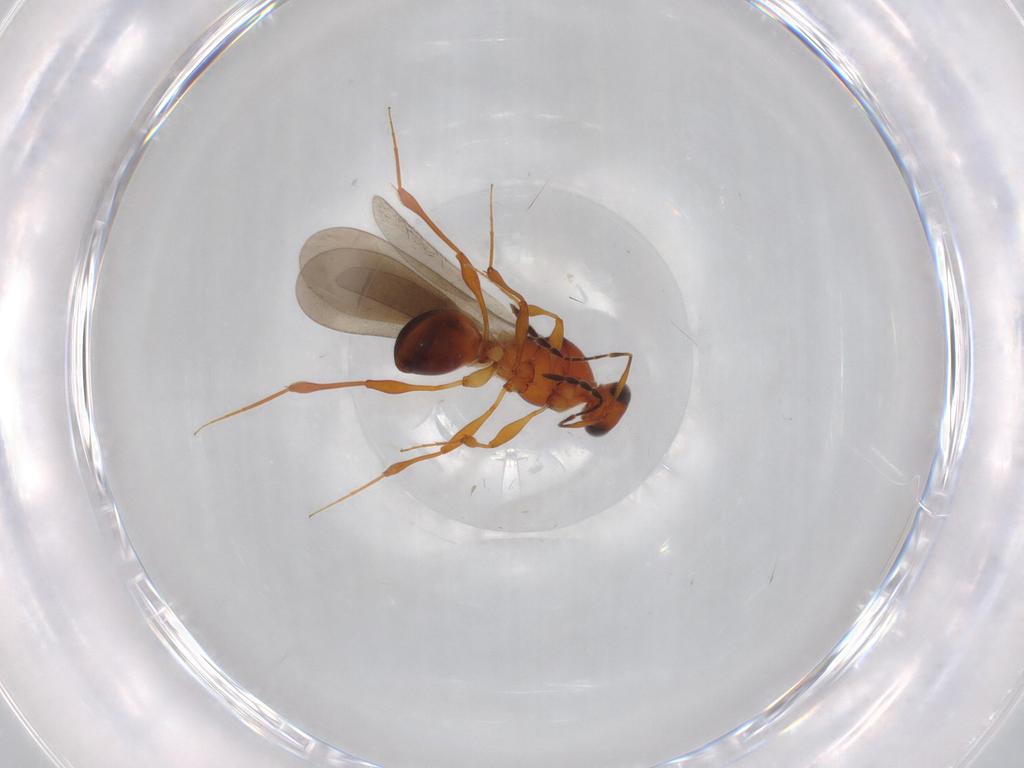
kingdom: Animalia
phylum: Arthropoda
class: Insecta
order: Hymenoptera
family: Platygastridae
